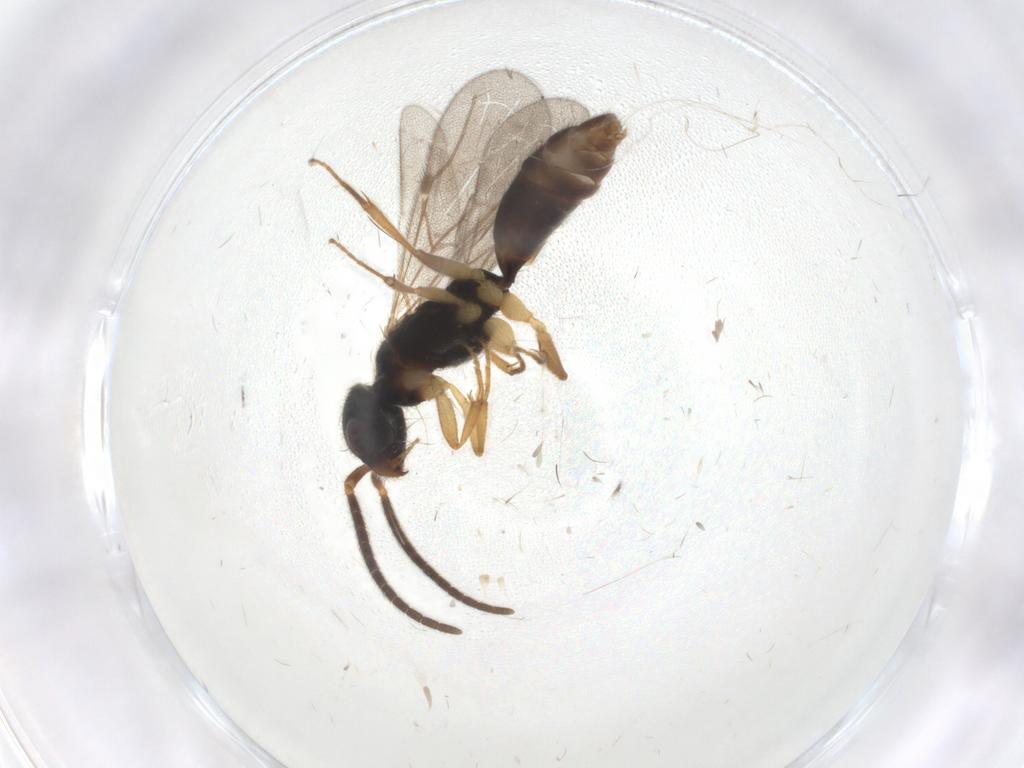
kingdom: Animalia
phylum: Arthropoda
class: Insecta
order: Hymenoptera
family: Bethylidae
